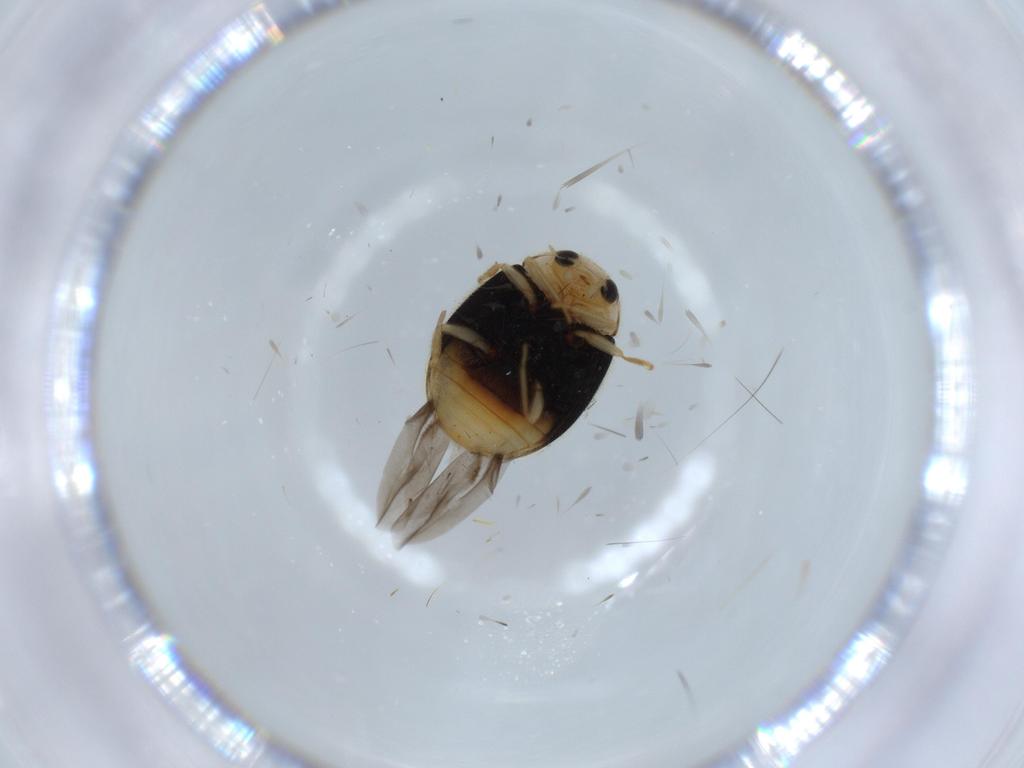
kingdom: Animalia
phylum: Arthropoda
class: Insecta
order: Coleoptera
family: Coccinellidae
